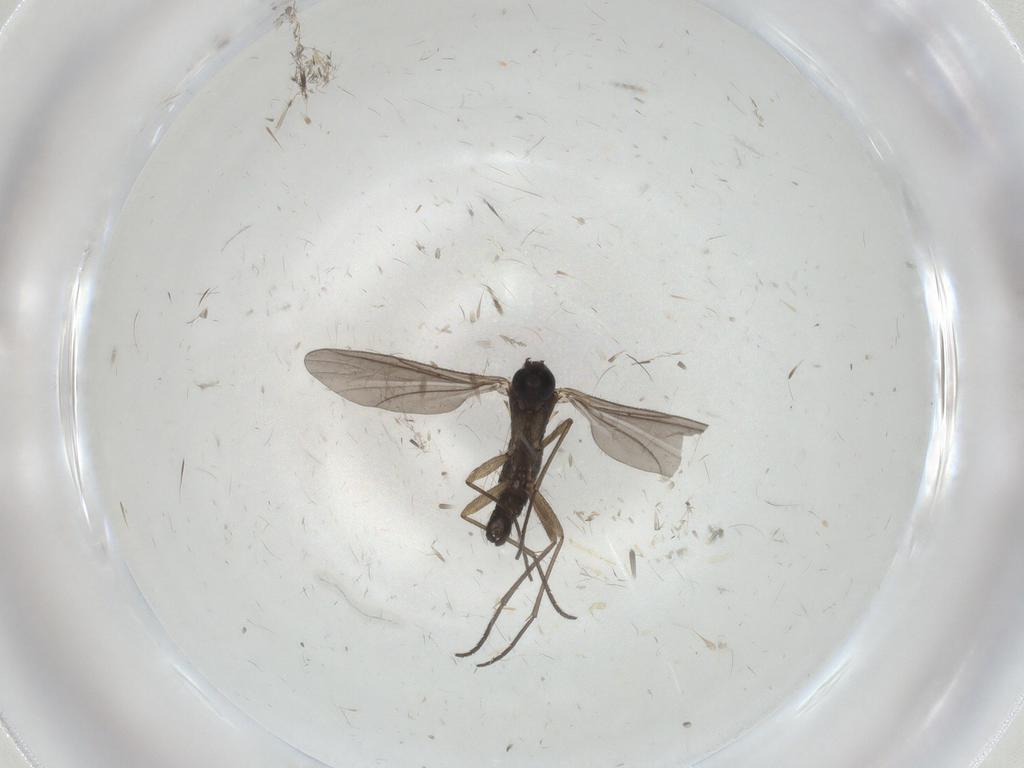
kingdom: Animalia
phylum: Arthropoda
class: Insecta
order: Diptera
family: Sciaridae
